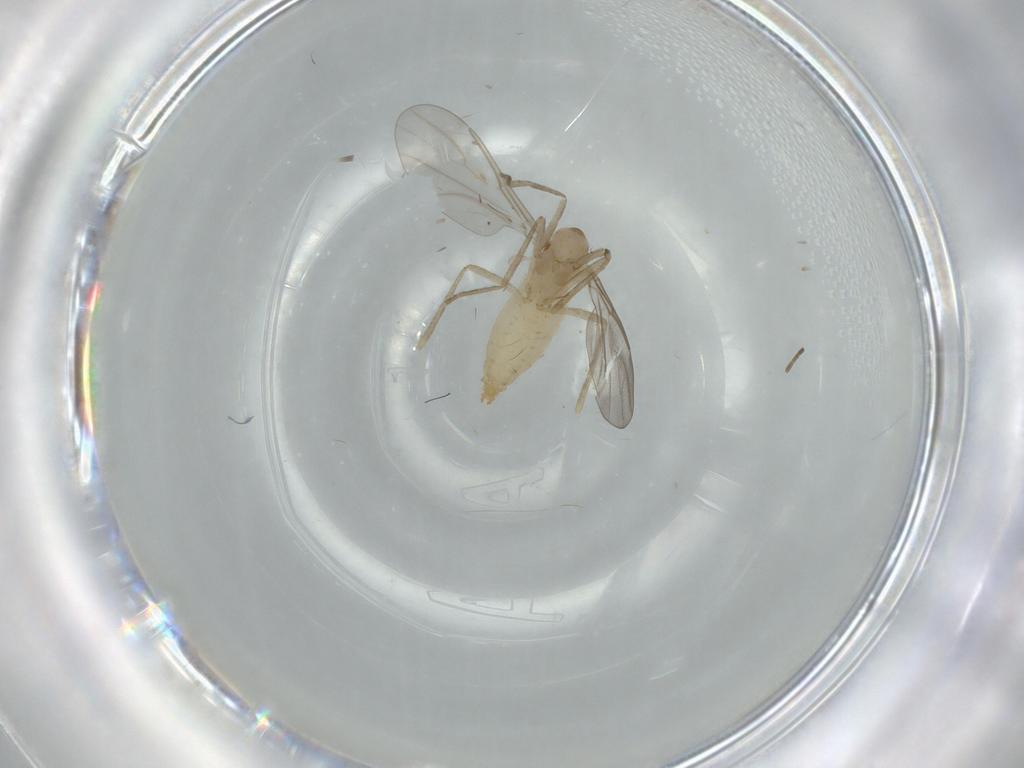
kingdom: Animalia
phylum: Arthropoda
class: Insecta
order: Diptera
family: Cecidomyiidae
